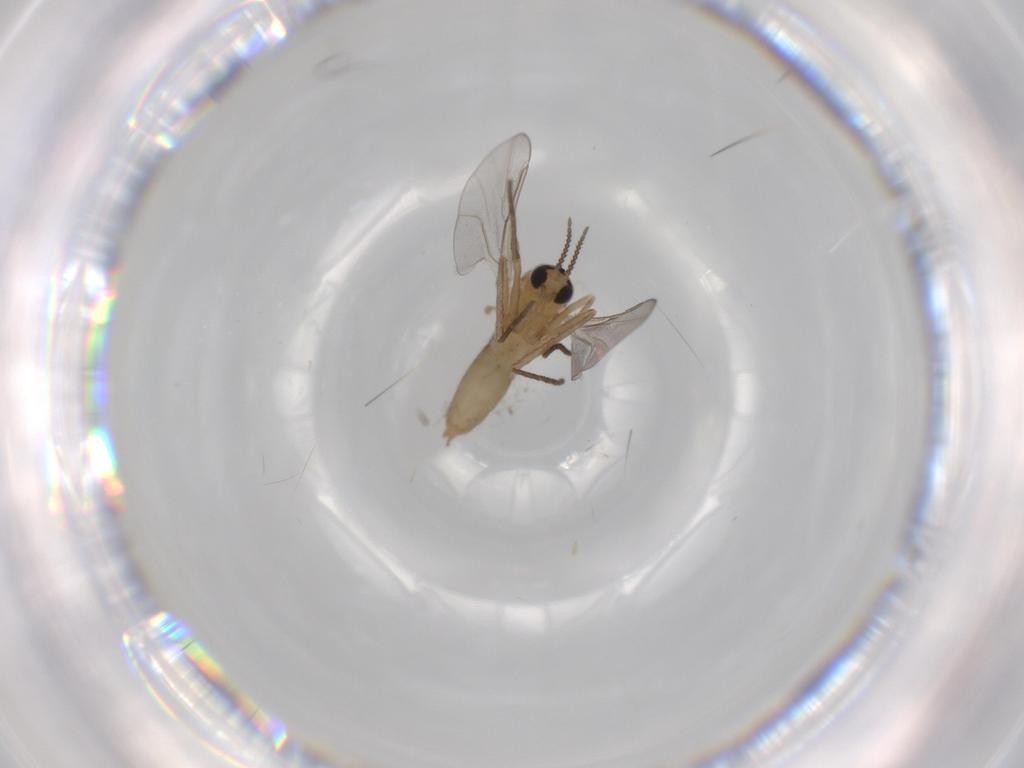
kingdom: Animalia
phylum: Arthropoda
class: Insecta
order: Diptera
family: Cecidomyiidae
